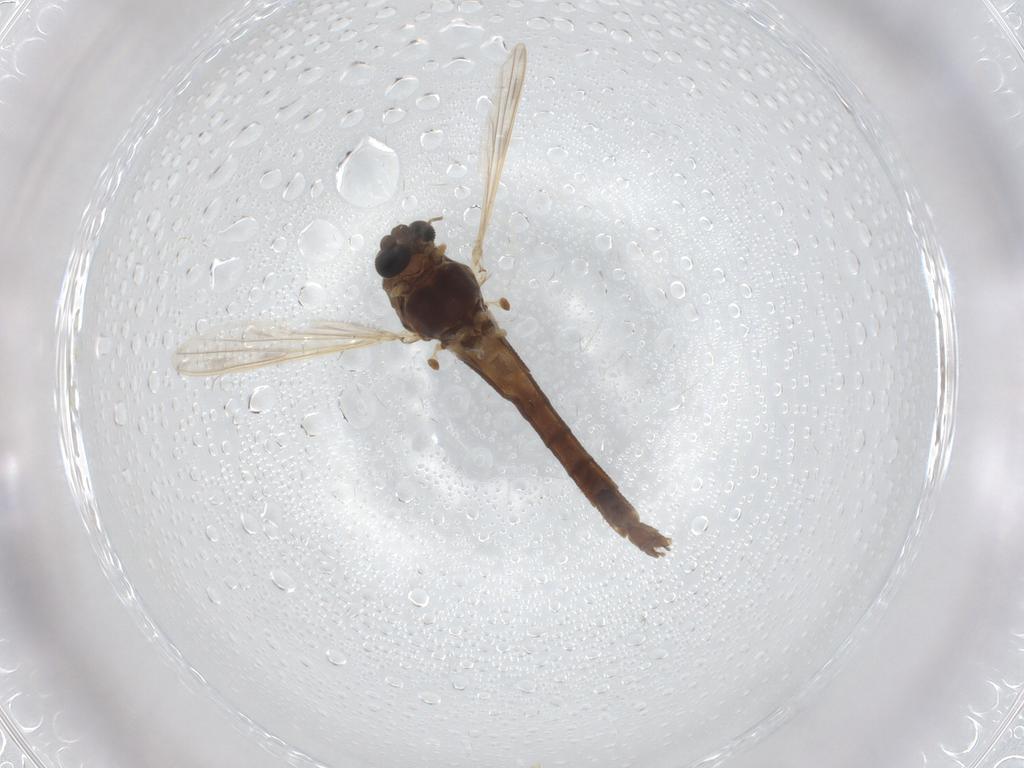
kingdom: Animalia
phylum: Arthropoda
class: Insecta
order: Diptera
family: Chironomidae
